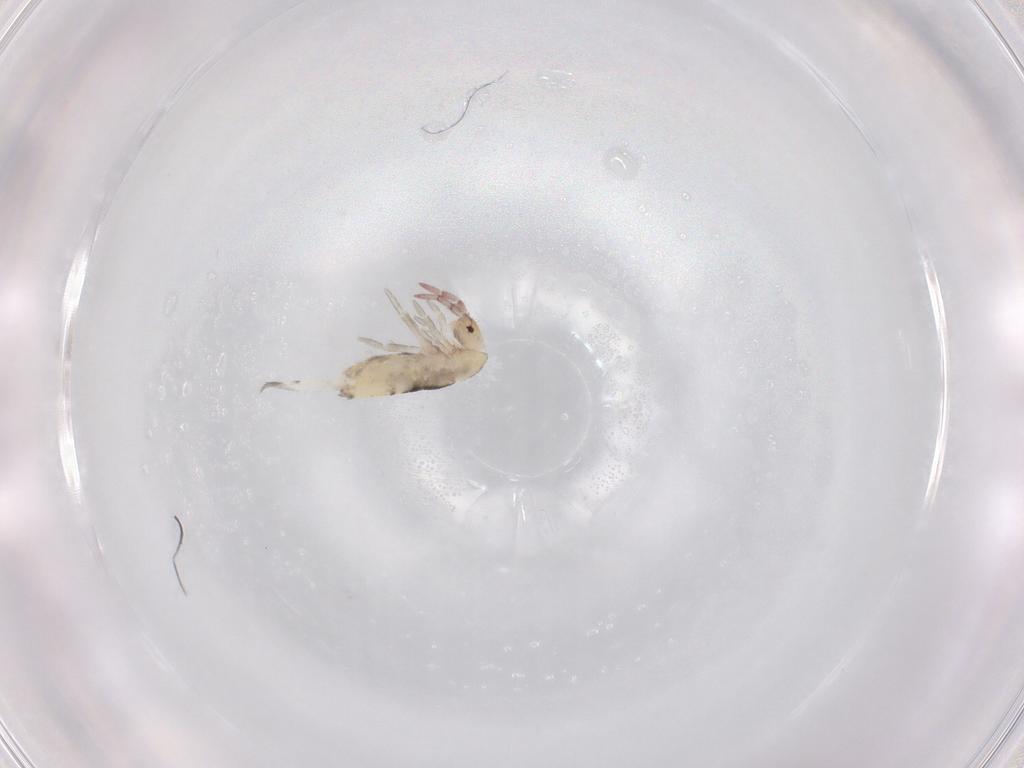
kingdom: Animalia
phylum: Arthropoda
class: Collembola
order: Entomobryomorpha
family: Entomobryidae
